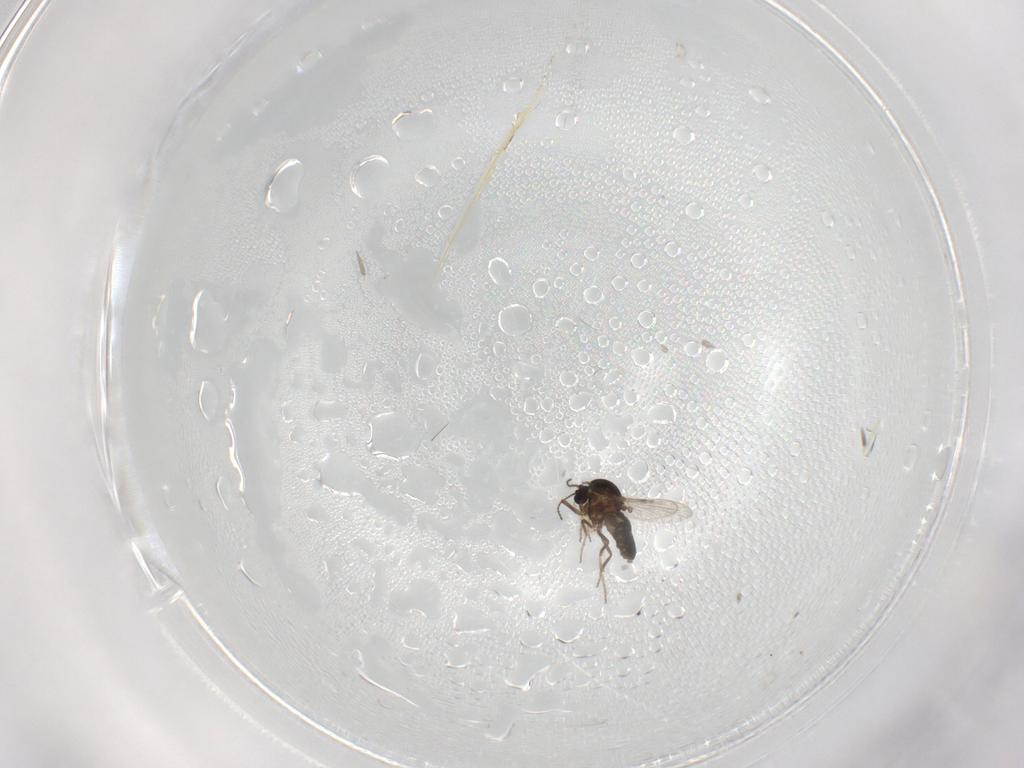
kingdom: Animalia
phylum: Arthropoda
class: Insecta
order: Diptera
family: Ceratopogonidae
